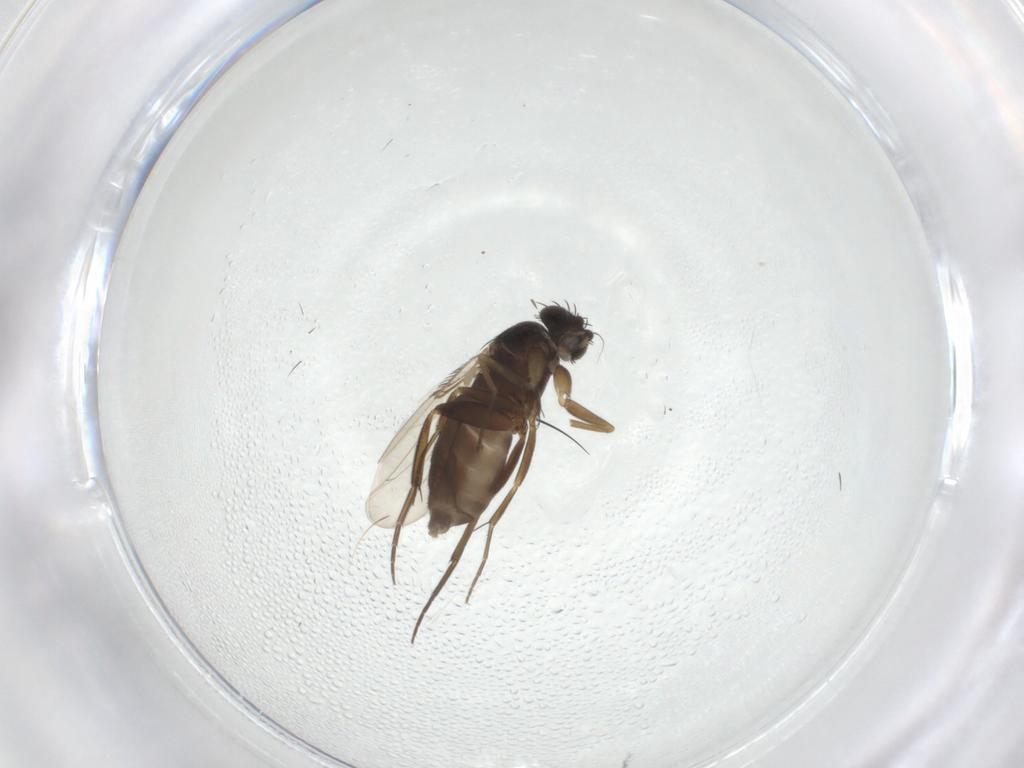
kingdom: Animalia
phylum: Arthropoda
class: Insecta
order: Diptera
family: Phoridae
